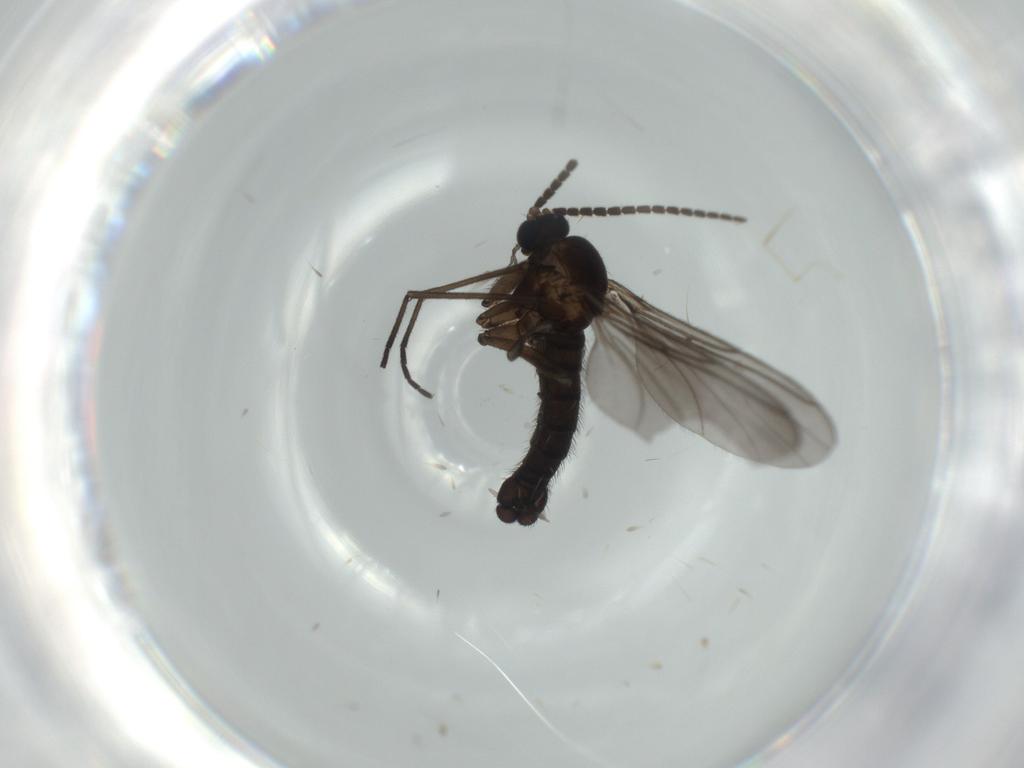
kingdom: Animalia
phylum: Arthropoda
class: Insecta
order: Diptera
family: Sciaridae
